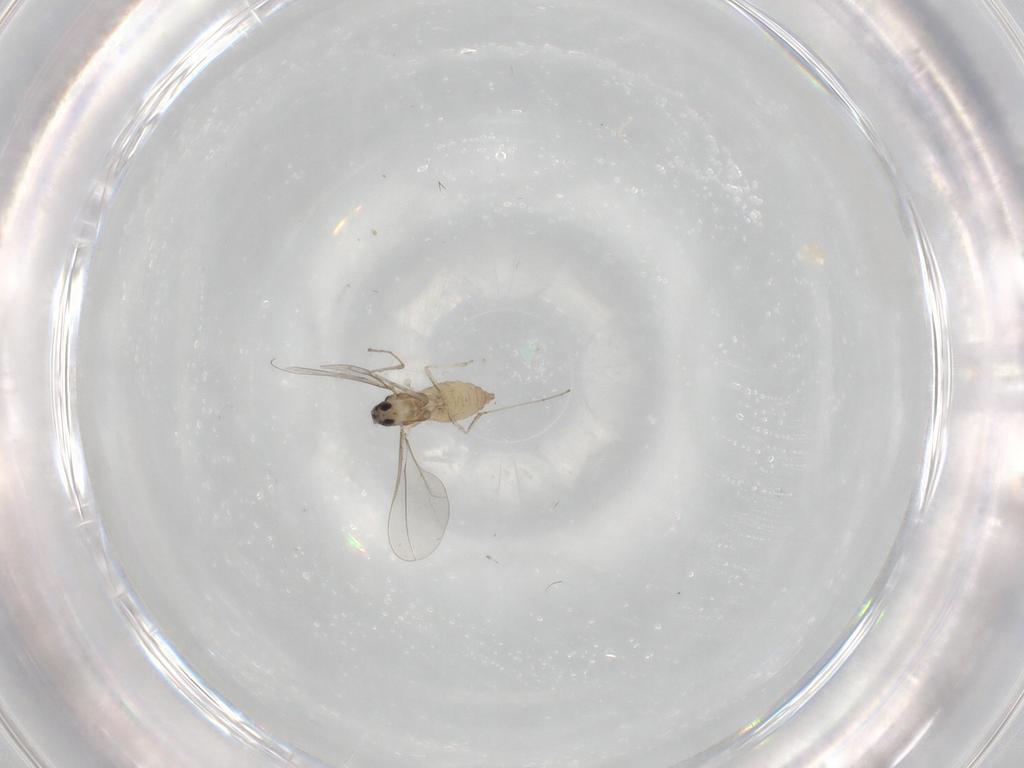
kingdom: Animalia
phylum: Arthropoda
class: Insecta
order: Diptera
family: Cecidomyiidae
